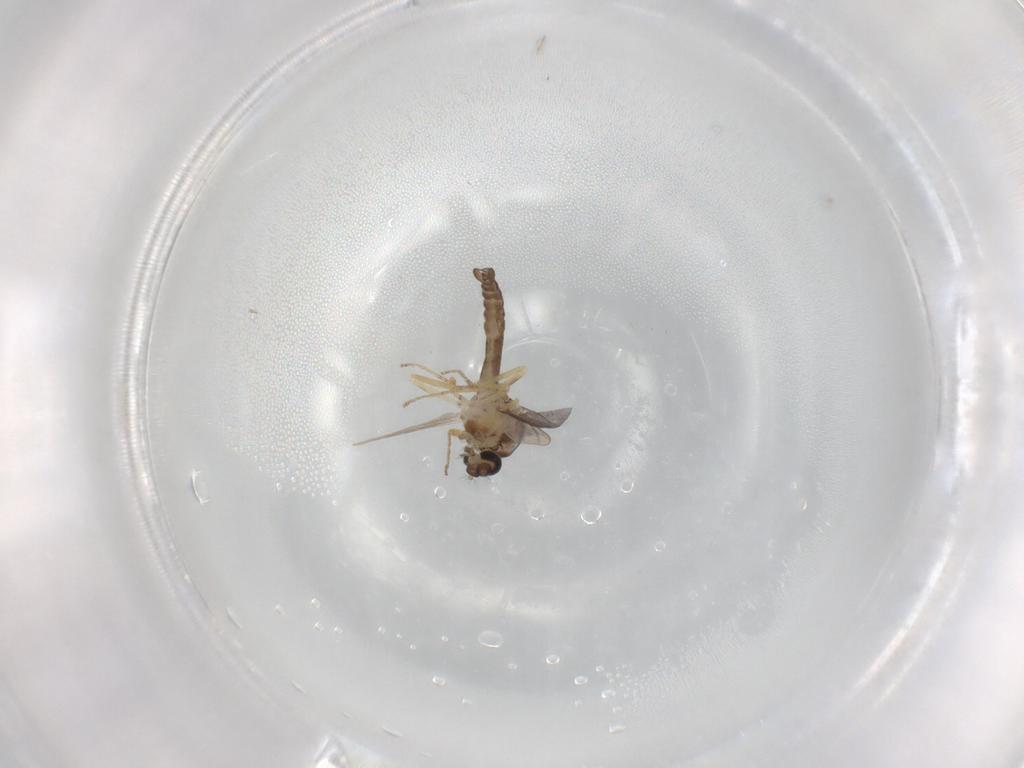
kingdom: Animalia
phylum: Arthropoda
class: Insecta
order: Diptera
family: Ceratopogonidae
